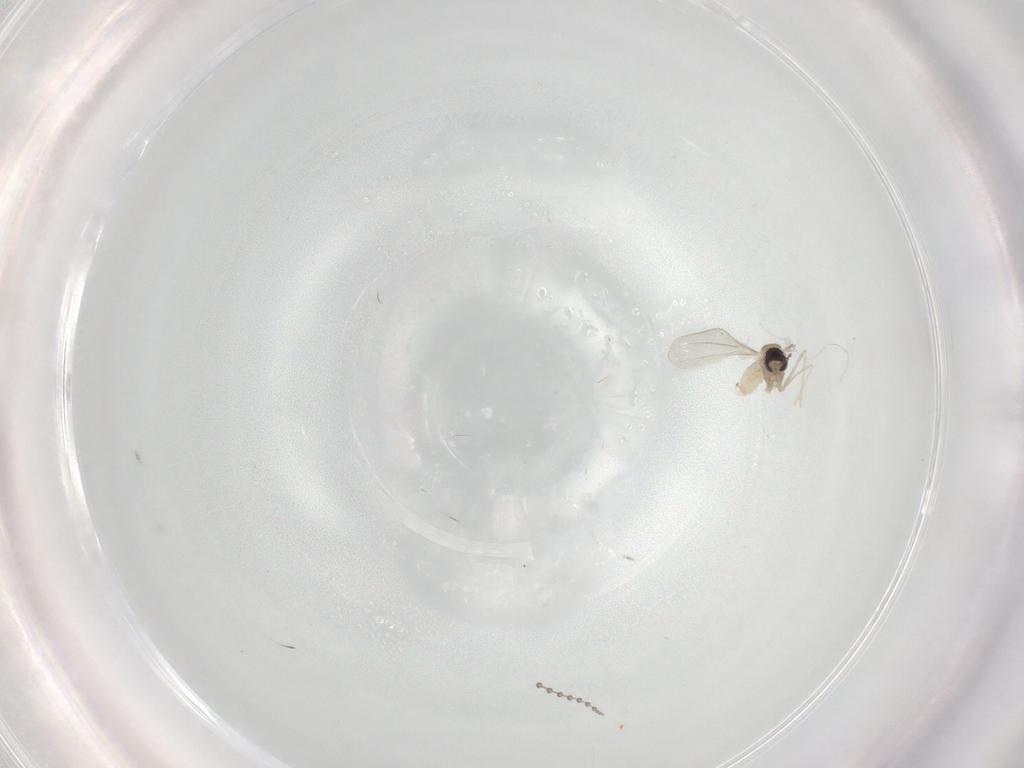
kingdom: Animalia
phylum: Arthropoda
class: Insecta
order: Diptera
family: Cecidomyiidae
